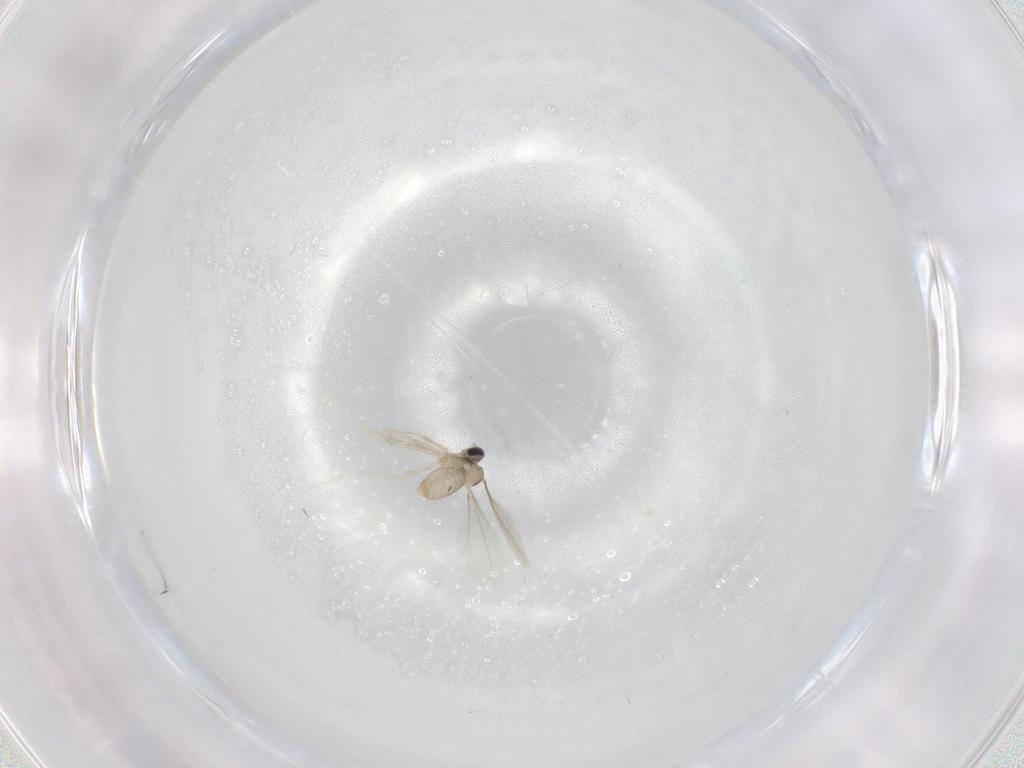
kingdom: Animalia
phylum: Arthropoda
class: Insecta
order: Diptera
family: Cecidomyiidae
